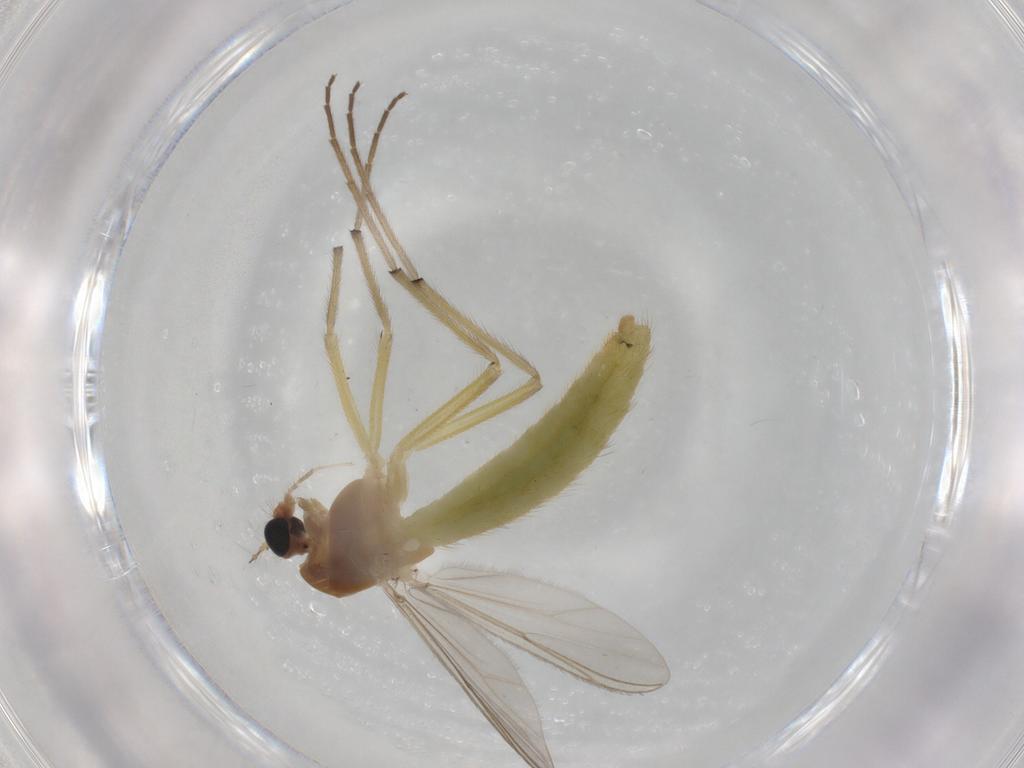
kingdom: Animalia
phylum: Arthropoda
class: Insecta
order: Diptera
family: Chironomidae
